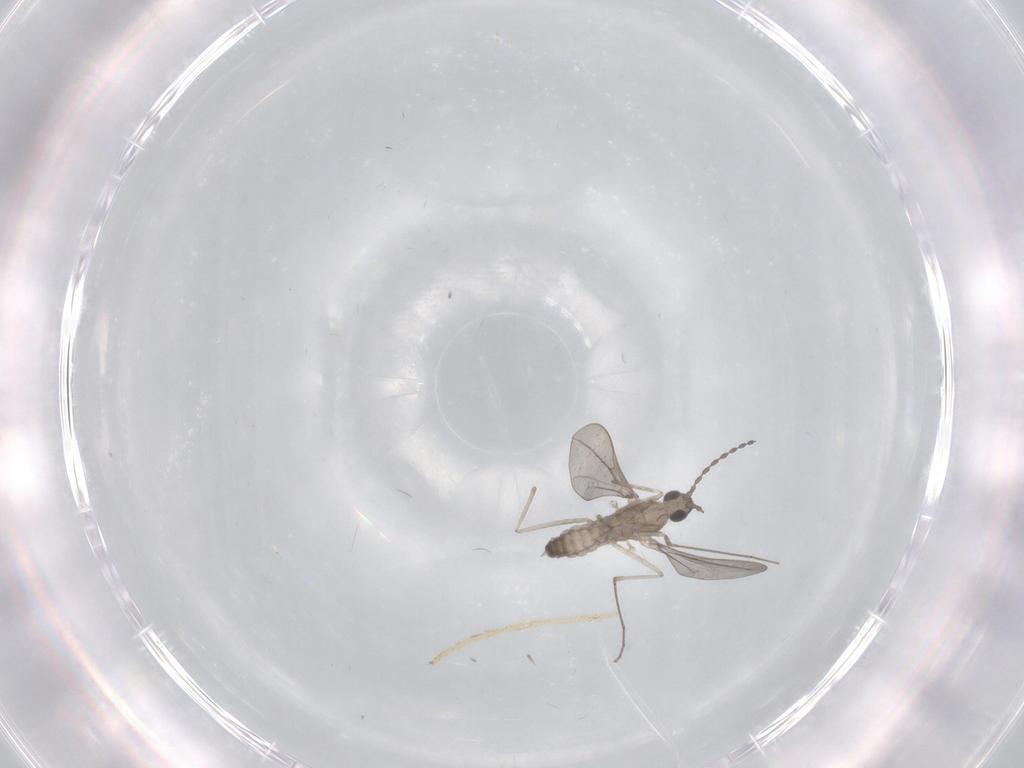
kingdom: Animalia
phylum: Arthropoda
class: Insecta
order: Diptera
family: Cecidomyiidae
